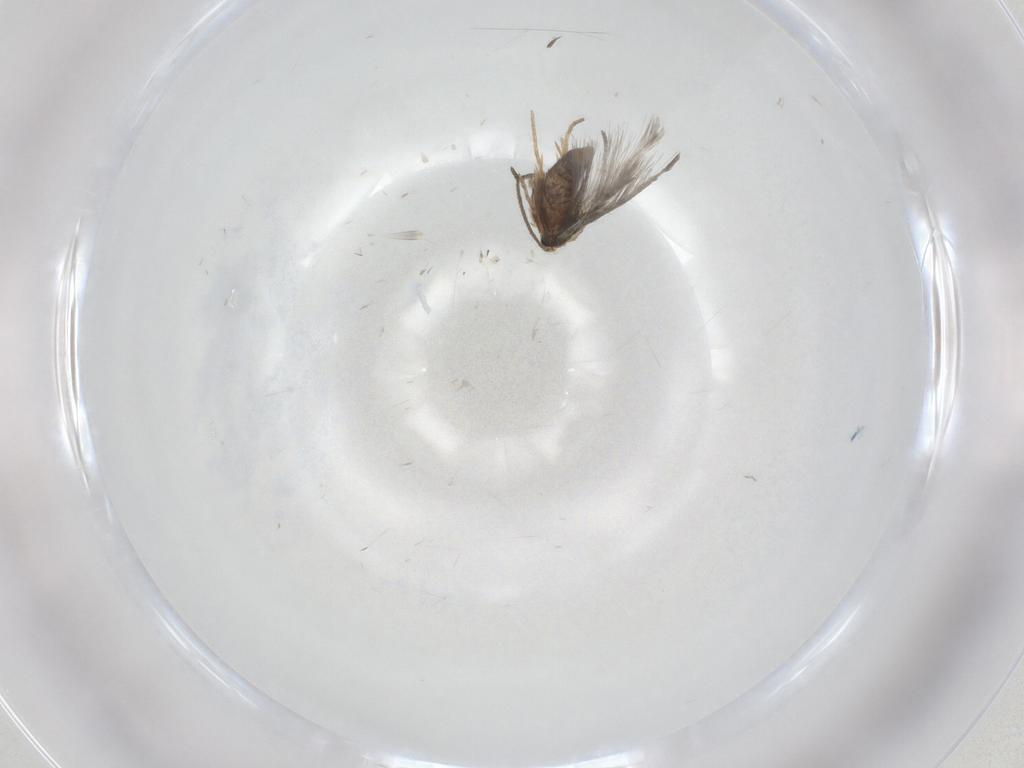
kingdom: Animalia
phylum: Arthropoda
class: Insecta
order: Lepidoptera
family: Nepticulidae
